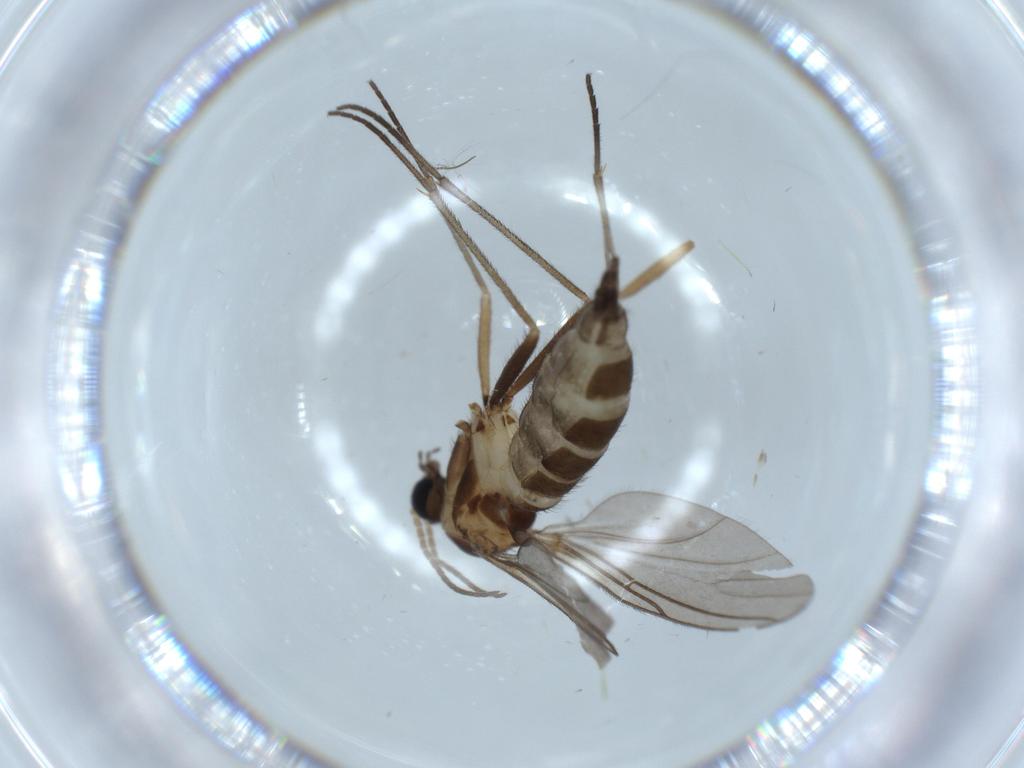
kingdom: Animalia
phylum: Arthropoda
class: Insecta
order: Diptera
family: Sciaridae
